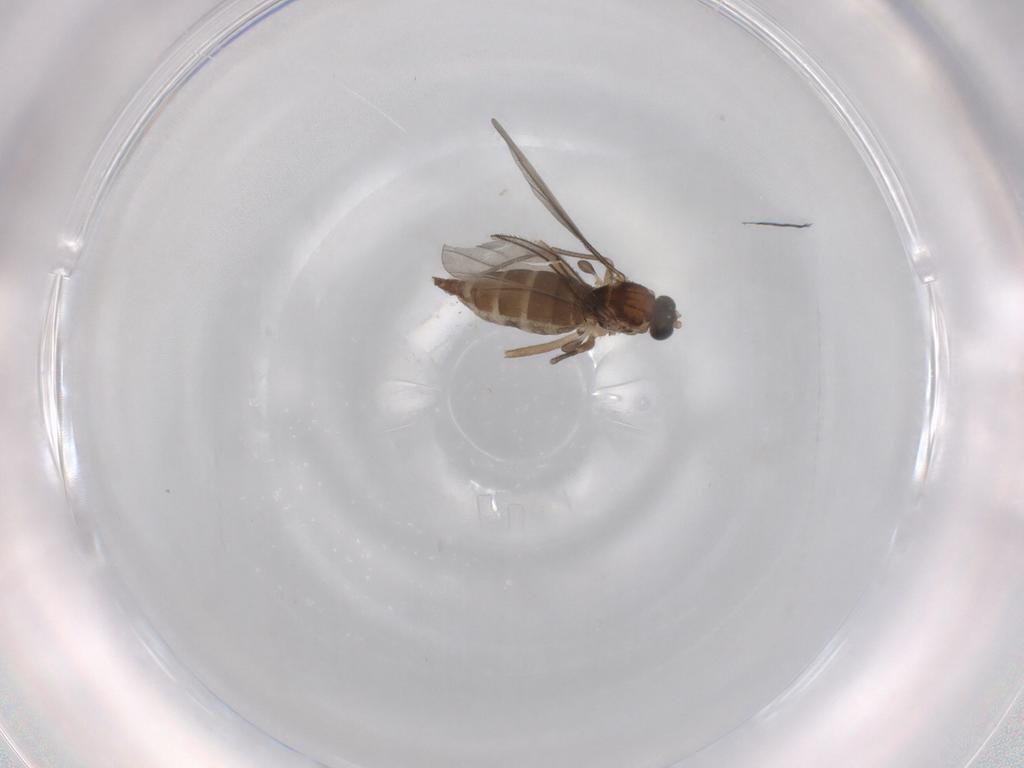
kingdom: Animalia
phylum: Arthropoda
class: Insecta
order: Diptera
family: Sciaridae
